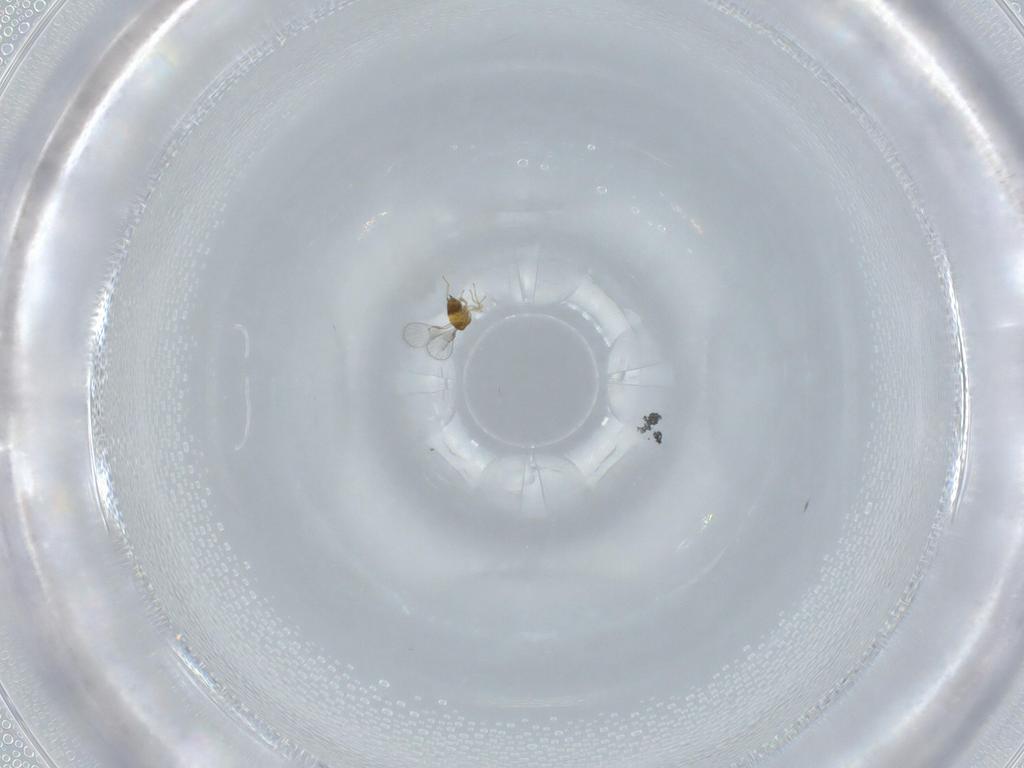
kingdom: Animalia
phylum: Arthropoda
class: Insecta
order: Hymenoptera
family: Trichogrammatidae
